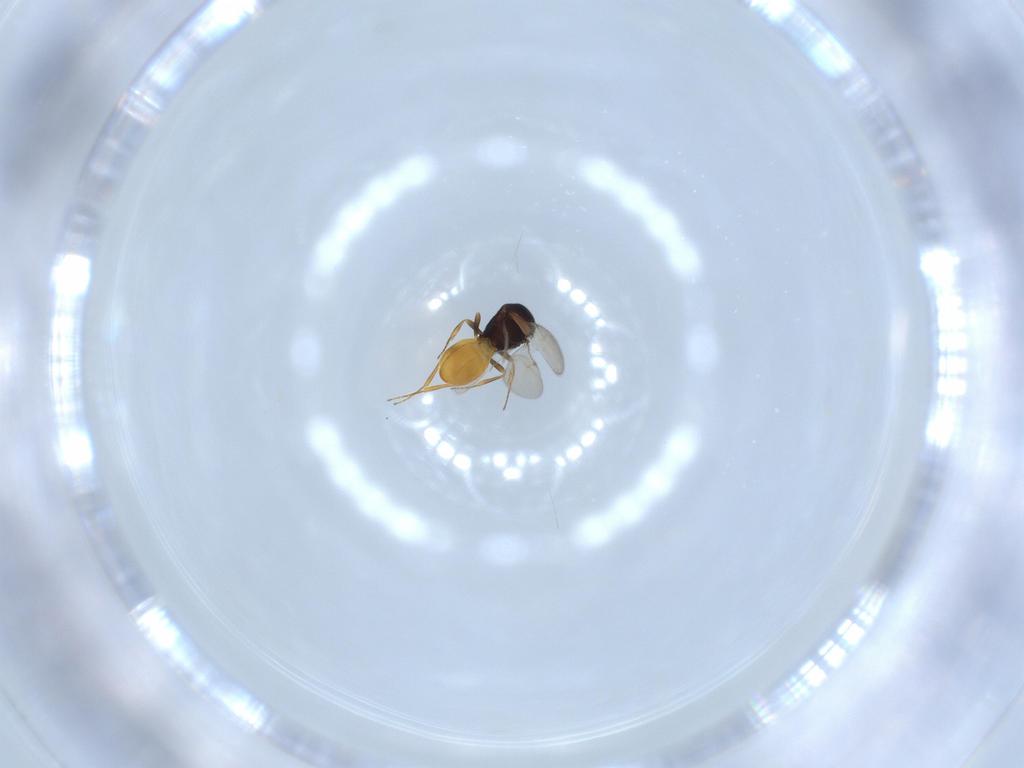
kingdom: Animalia
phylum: Arthropoda
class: Insecta
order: Hymenoptera
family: Scelionidae
